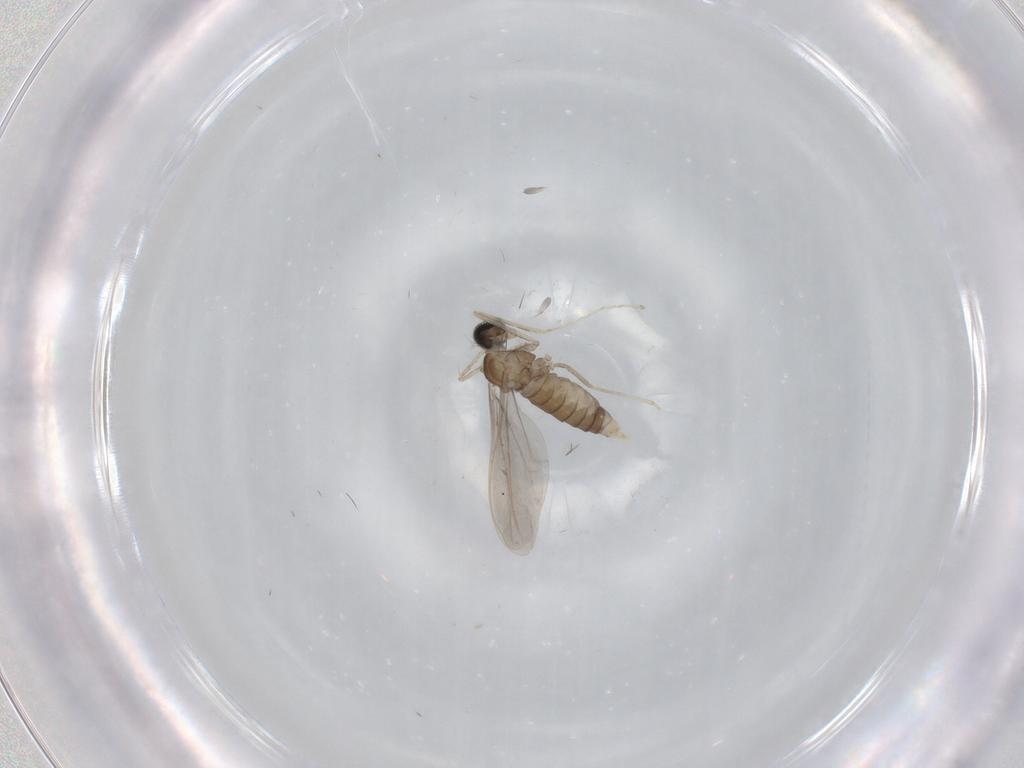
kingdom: Animalia
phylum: Arthropoda
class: Insecta
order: Diptera
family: Cecidomyiidae
